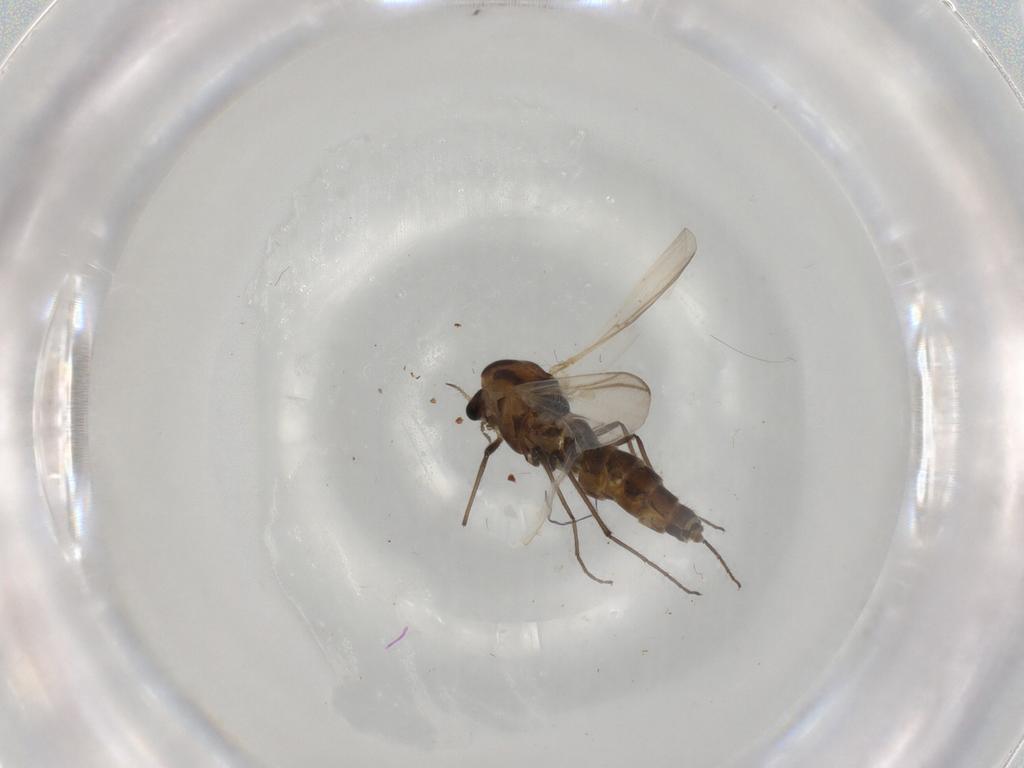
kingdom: Animalia
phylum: Arthropoda
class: Insecta
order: Diptera
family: Chironomidae
